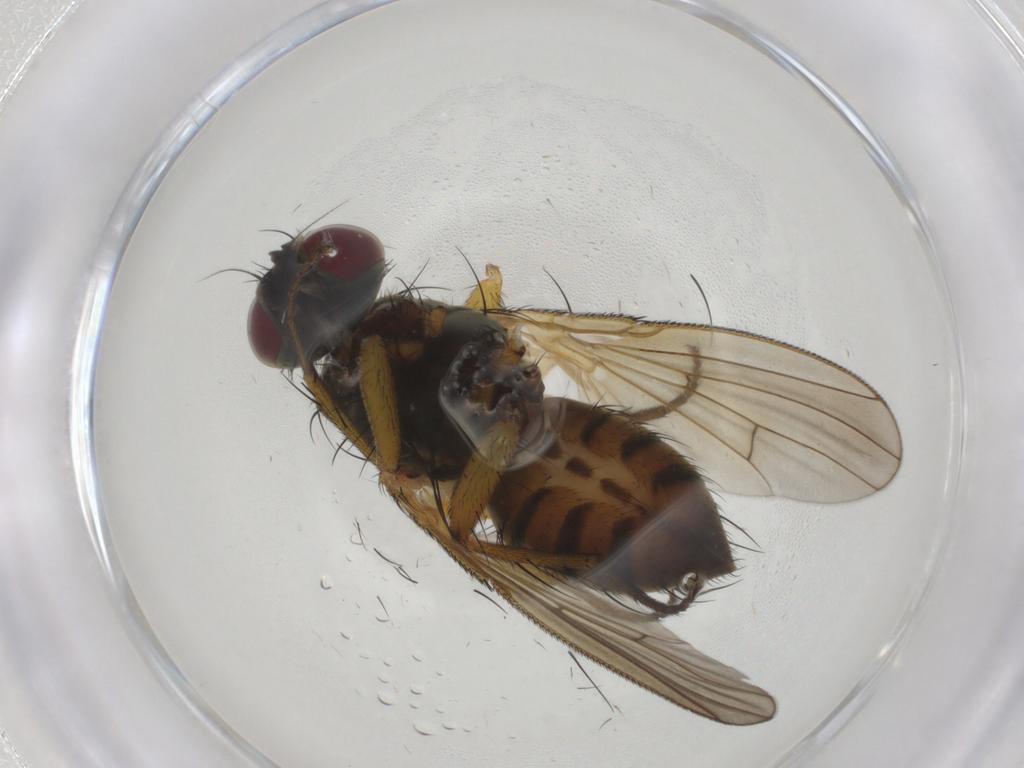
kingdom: Animalia
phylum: Arthropoda
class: Insecta
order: Diptera
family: Muscidae
